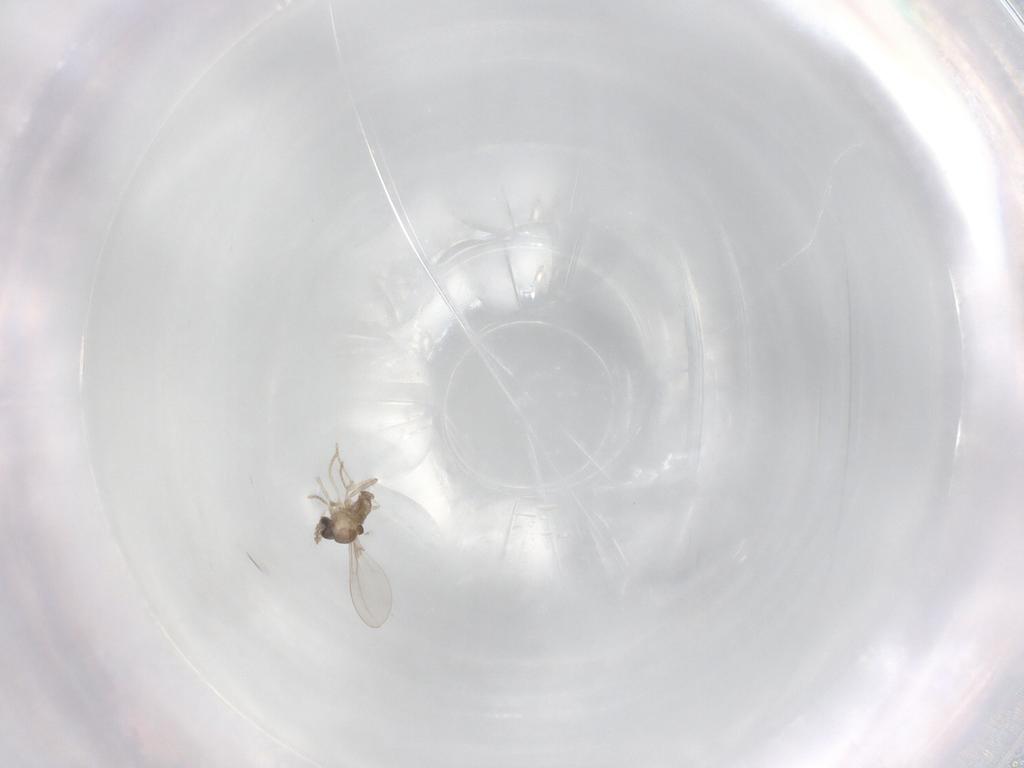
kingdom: Animalia
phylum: Arthropoda
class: Insecta
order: Diptera
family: Cecidomyiidae
